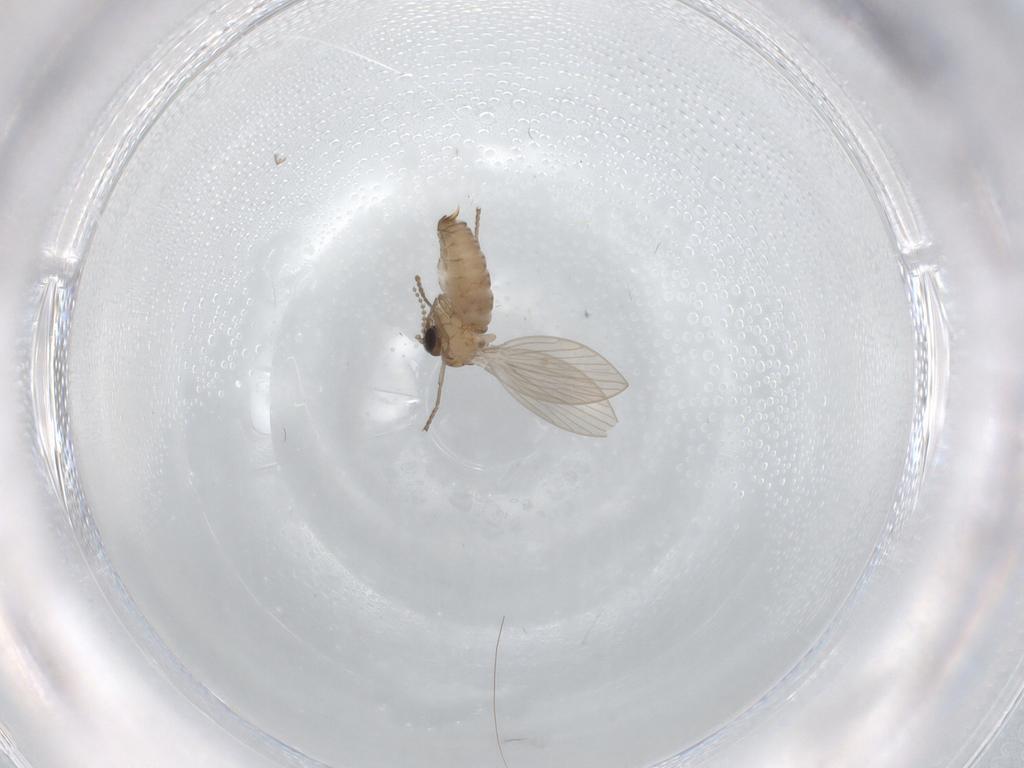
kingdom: Animalia
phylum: Arthropoda
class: Insecta
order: Diptera
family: Psychodidae
